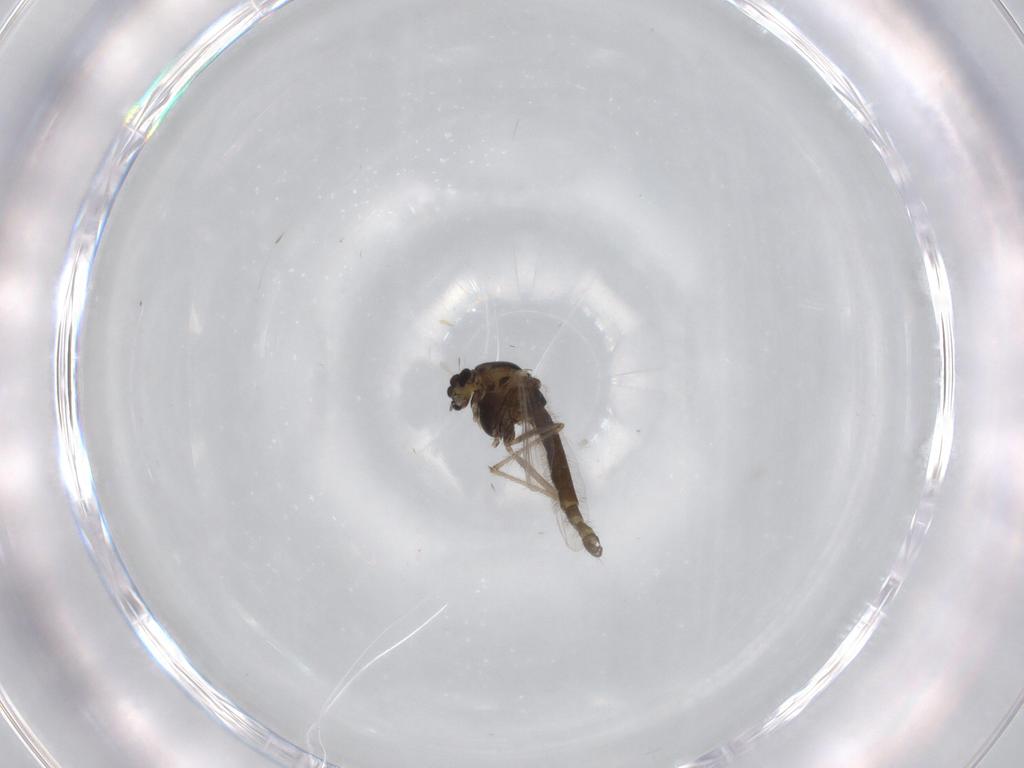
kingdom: Animalia
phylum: Arthropoda
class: Insecta
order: Diptera
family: Chironomidae
